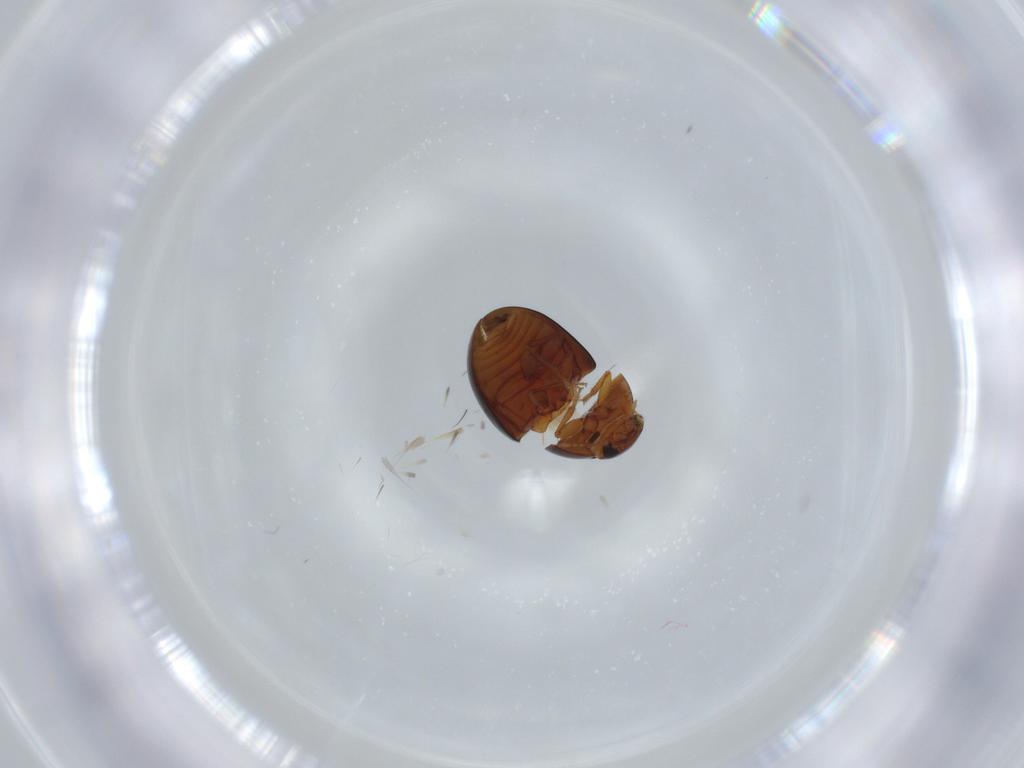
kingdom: Animalia
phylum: Arthropoda
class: Insecta
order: Coleoptera
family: Phalacridae
